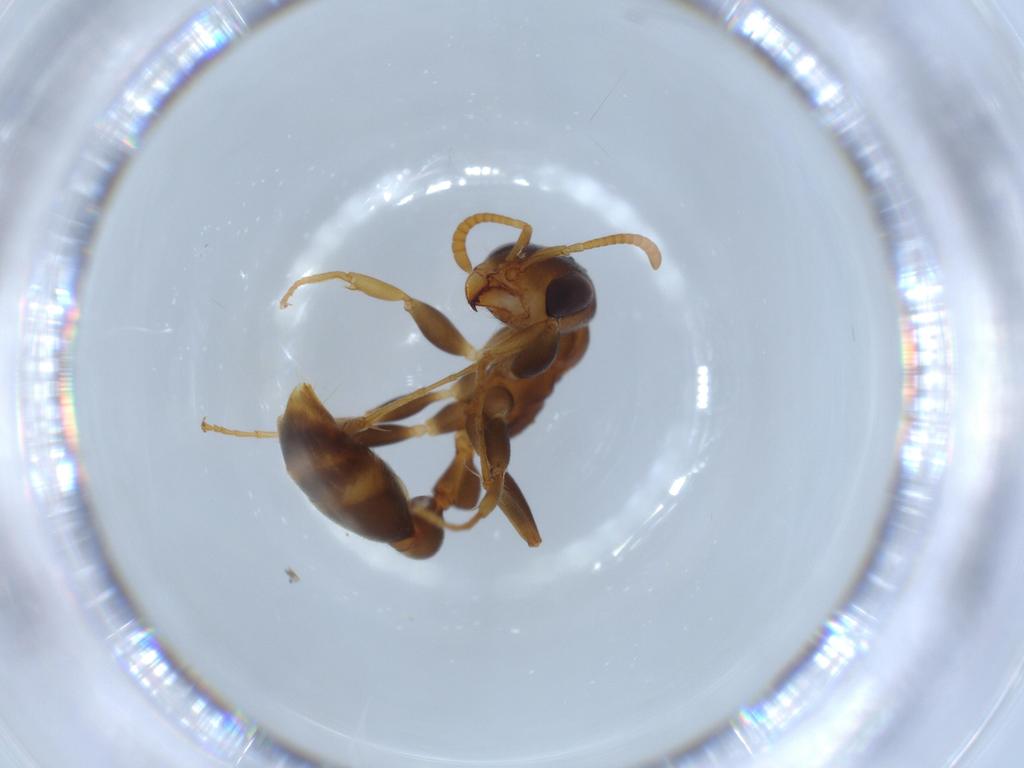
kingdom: Animalia
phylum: Arthropoda
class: Insecta
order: Hymenoptera
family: Formicidae
